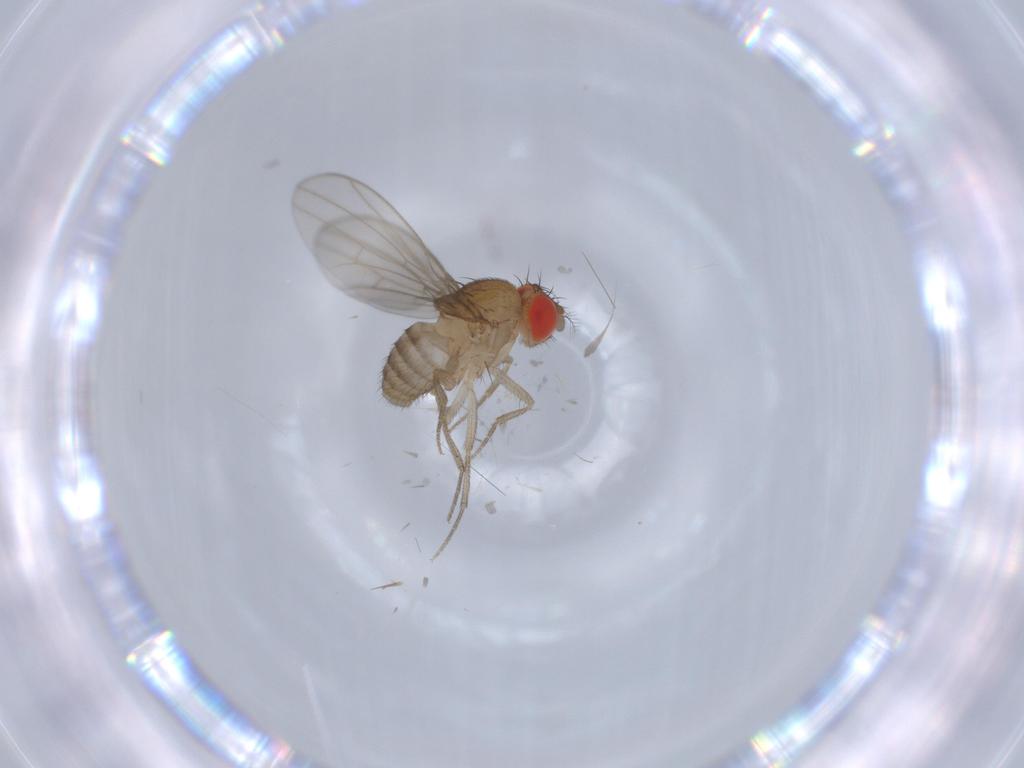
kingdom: Animalia
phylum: Arthropoda
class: Insecta
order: Diptera
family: Drosophilidae
